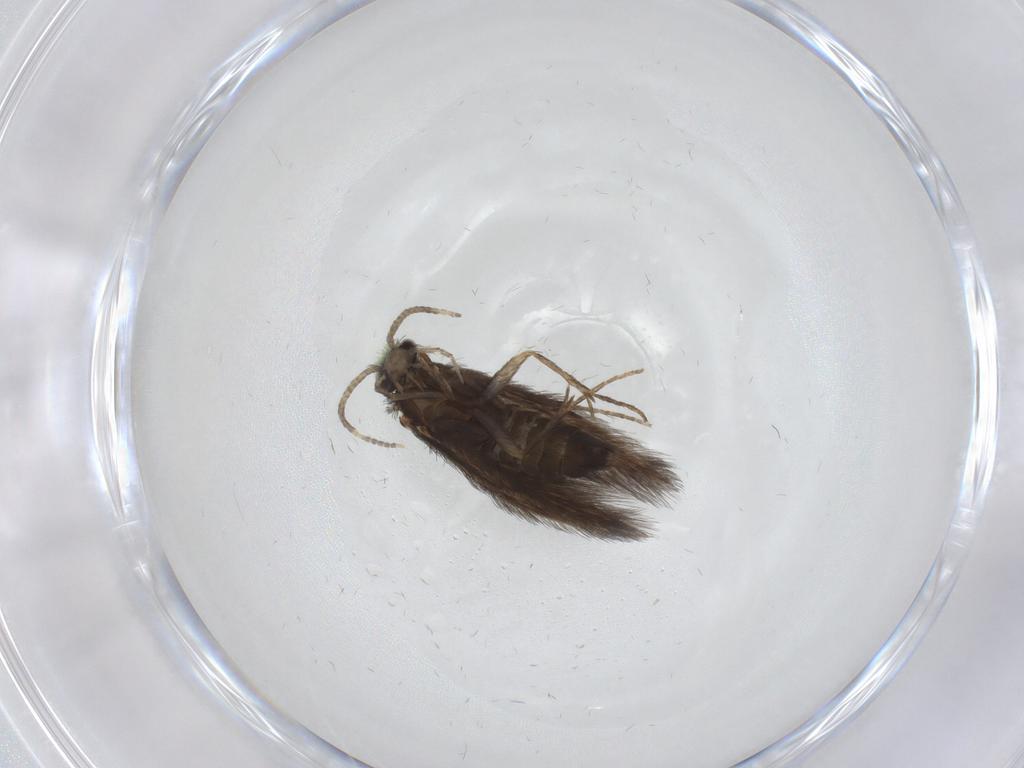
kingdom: Animalia
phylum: Arthropoda
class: Insecta
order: Trichoptera
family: Hydroptilidae
